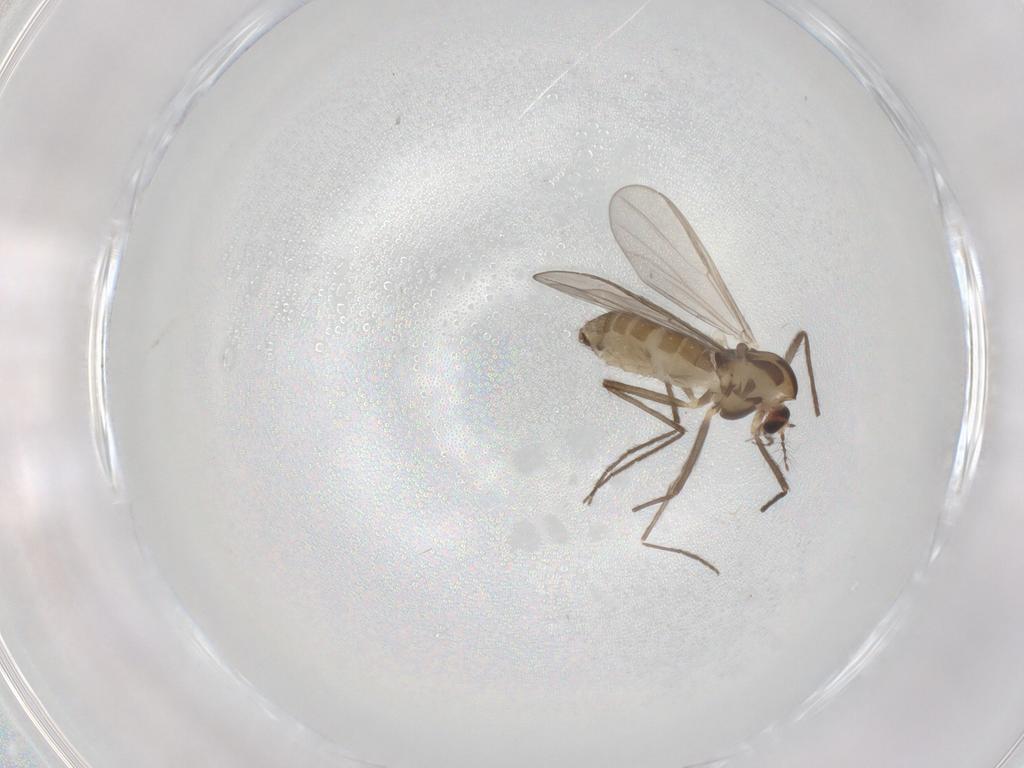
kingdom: Animalia
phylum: Arthropoda
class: Insecta
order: Diptera
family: Chironomidae
